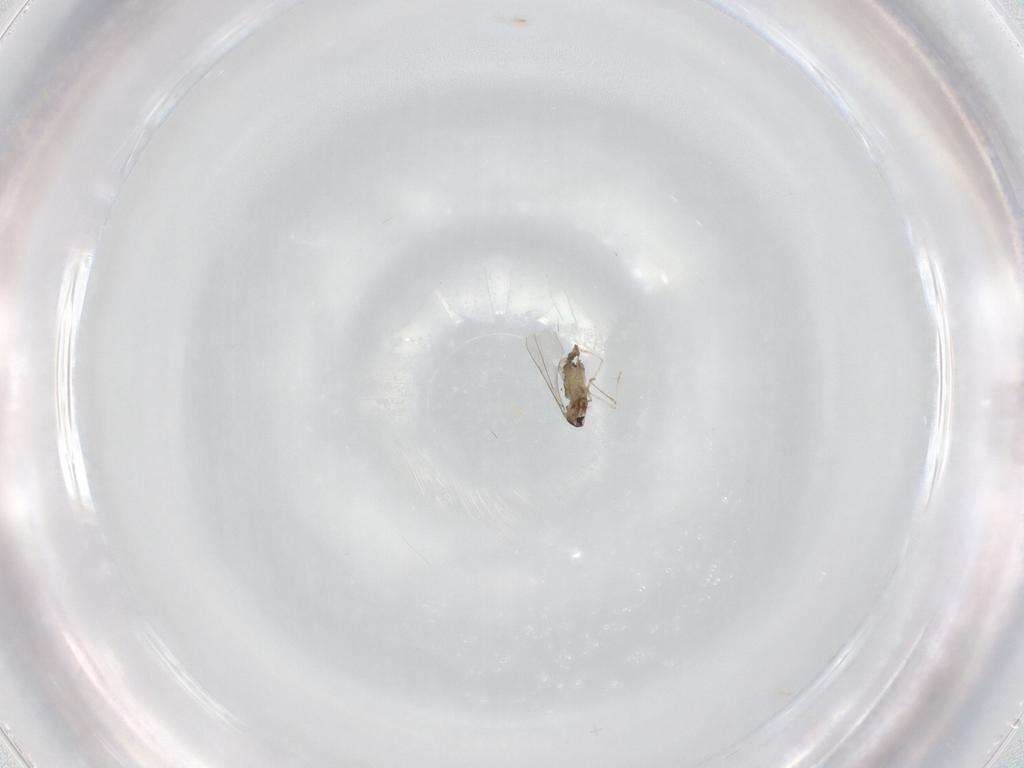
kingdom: Animalia
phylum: Arthropoda
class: Insecta
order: Diptera
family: Cecidomyiidae
